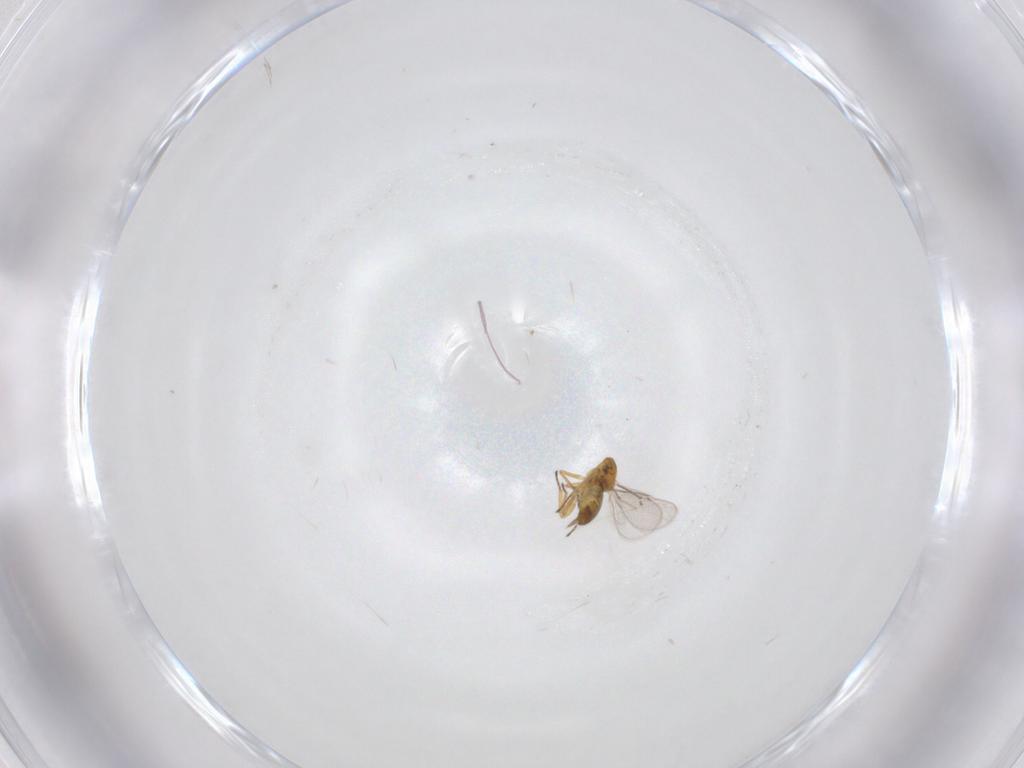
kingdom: Animalia
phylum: Arthropoda
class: Insecta
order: Hymenoptera
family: Eulophidae
